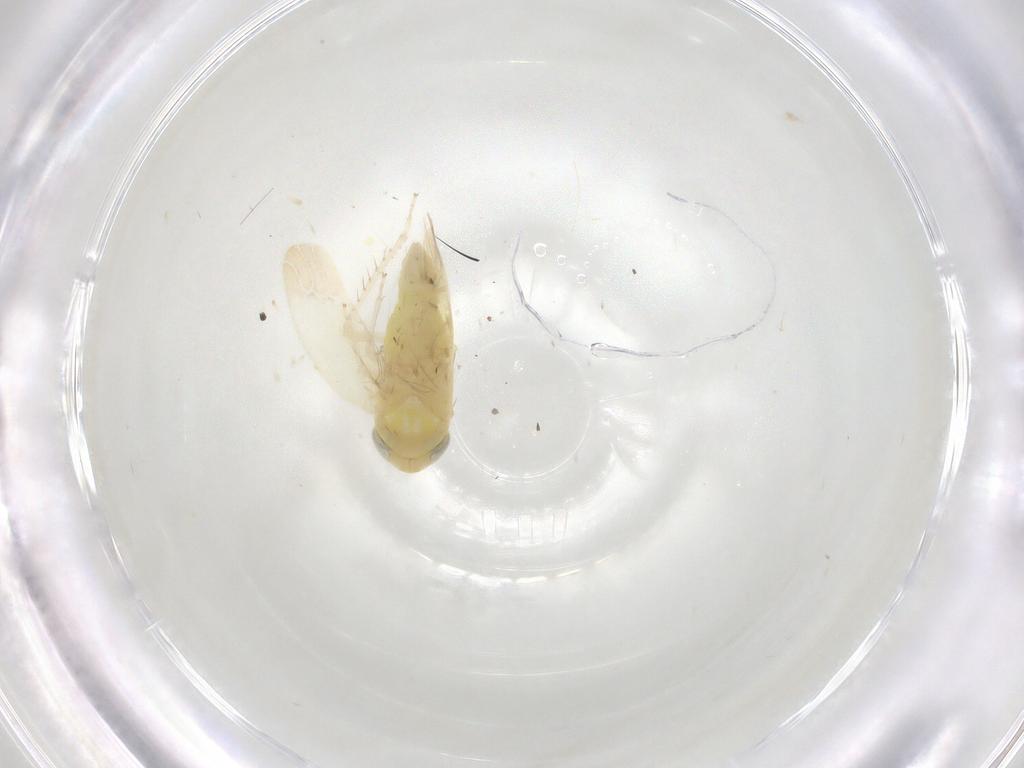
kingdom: Animalia
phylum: Arthropoda
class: Insecta
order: Hemiptera
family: Cicadellidae
